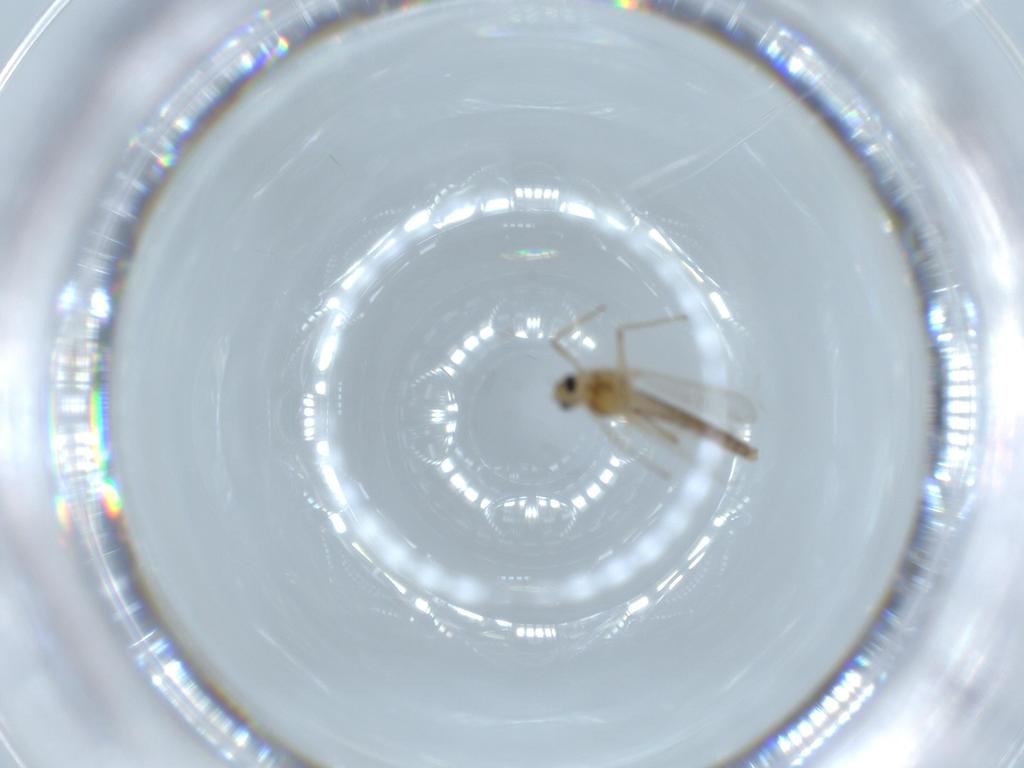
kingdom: Animalia
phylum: Arthropoda
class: Insecta
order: Diptera
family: Chironomidae
